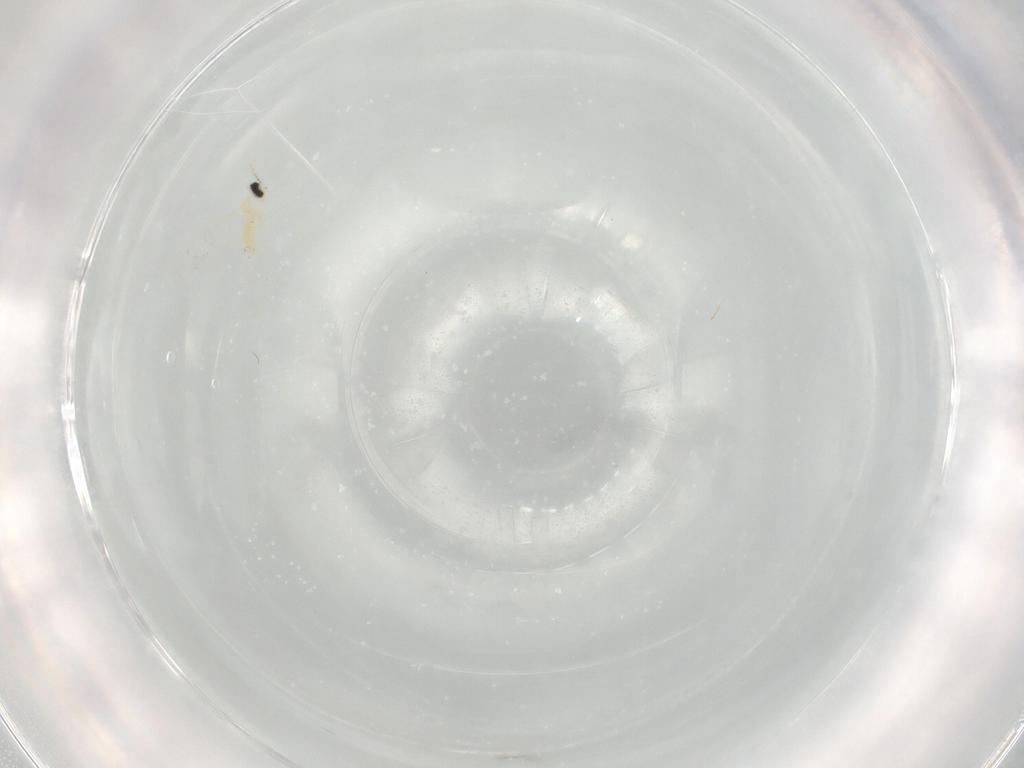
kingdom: Animalia
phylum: Arthropoda
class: Insecta
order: Diptera
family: Cecidomyiidae
